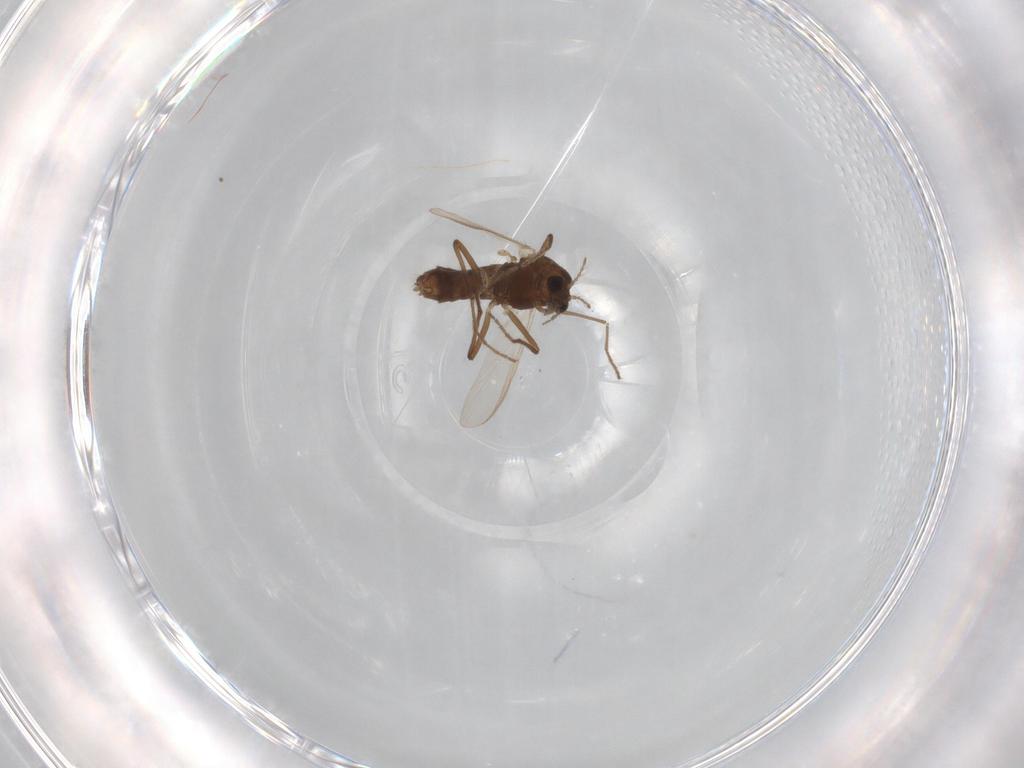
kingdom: Animalia
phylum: Arthropoda
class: Insecta
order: Diptera
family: Chironomidae
